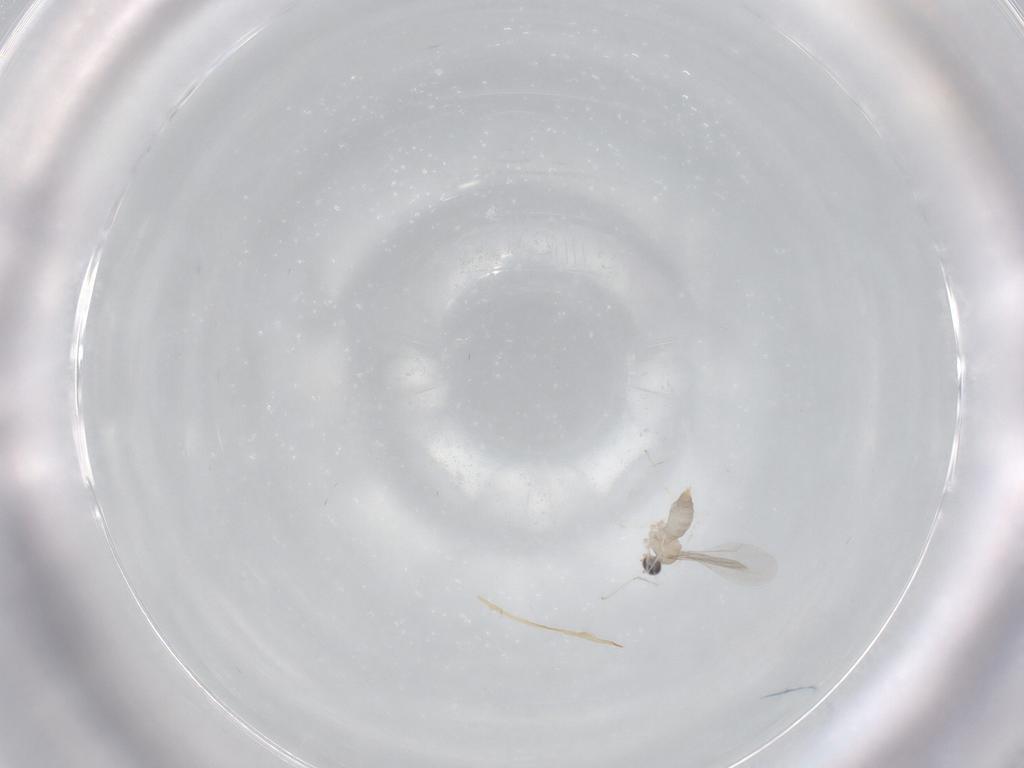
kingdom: Animalia
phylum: Arthropoda
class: Insecta
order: Diptera
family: Cecidomyiidae
